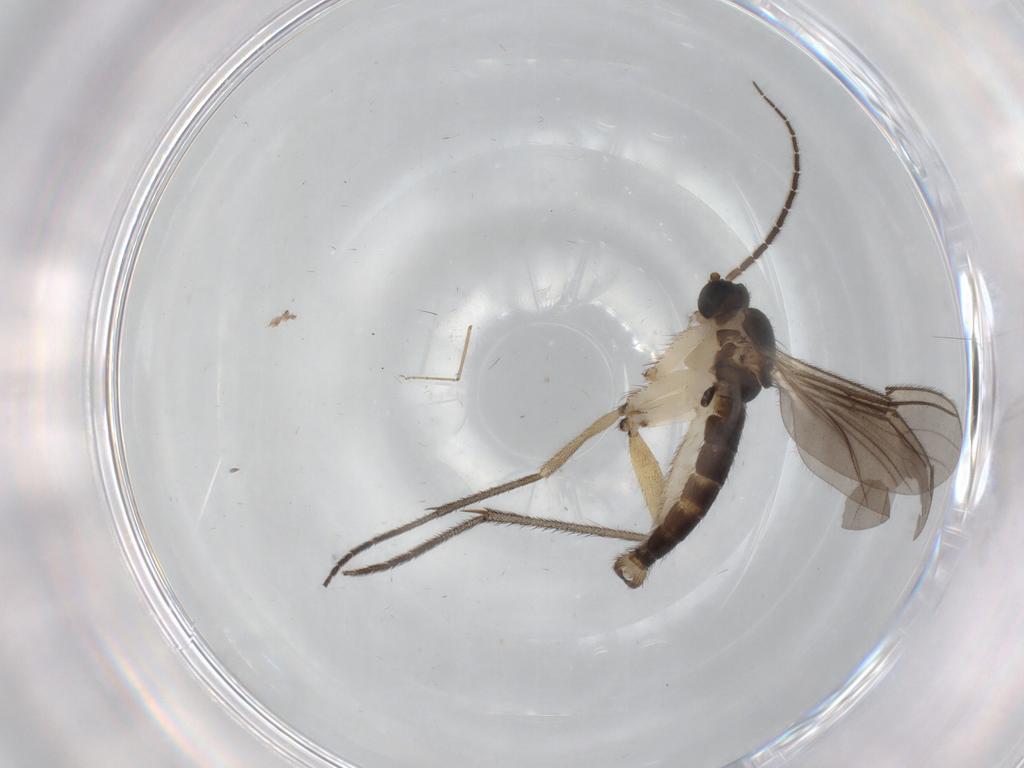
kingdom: Animalia
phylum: Arthropoda
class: Insecta
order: Diptera
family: Sciaridae
